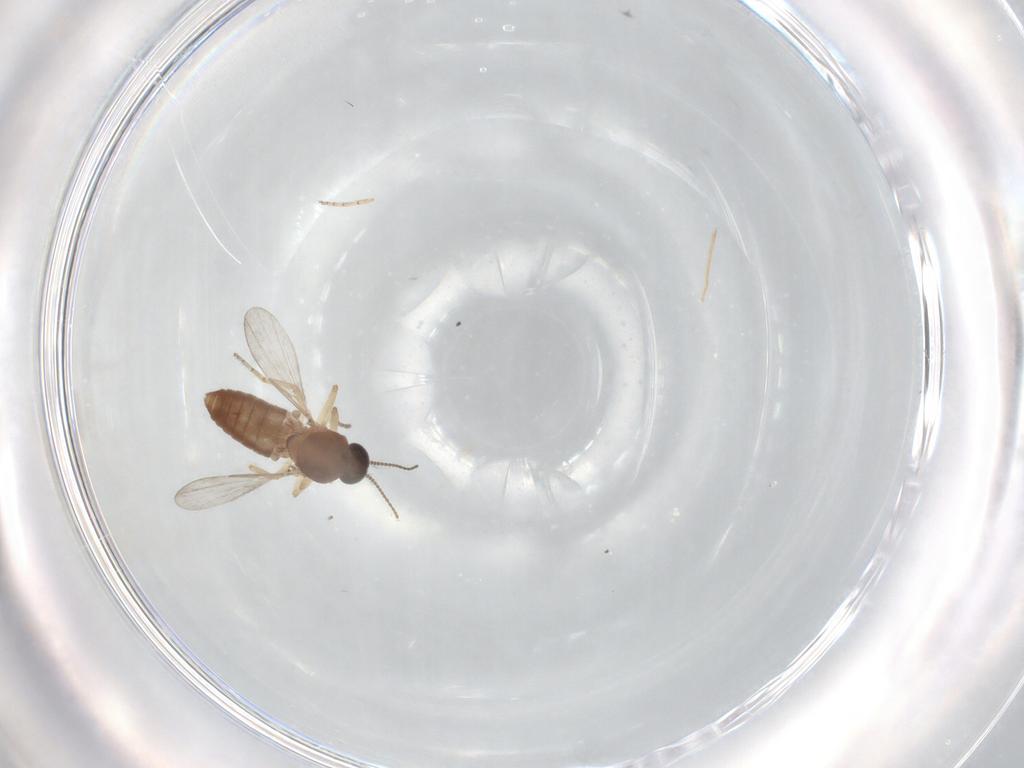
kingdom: Animalia
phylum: Arthropoda
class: Insecta
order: Diptera
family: Ceratopogonidae
